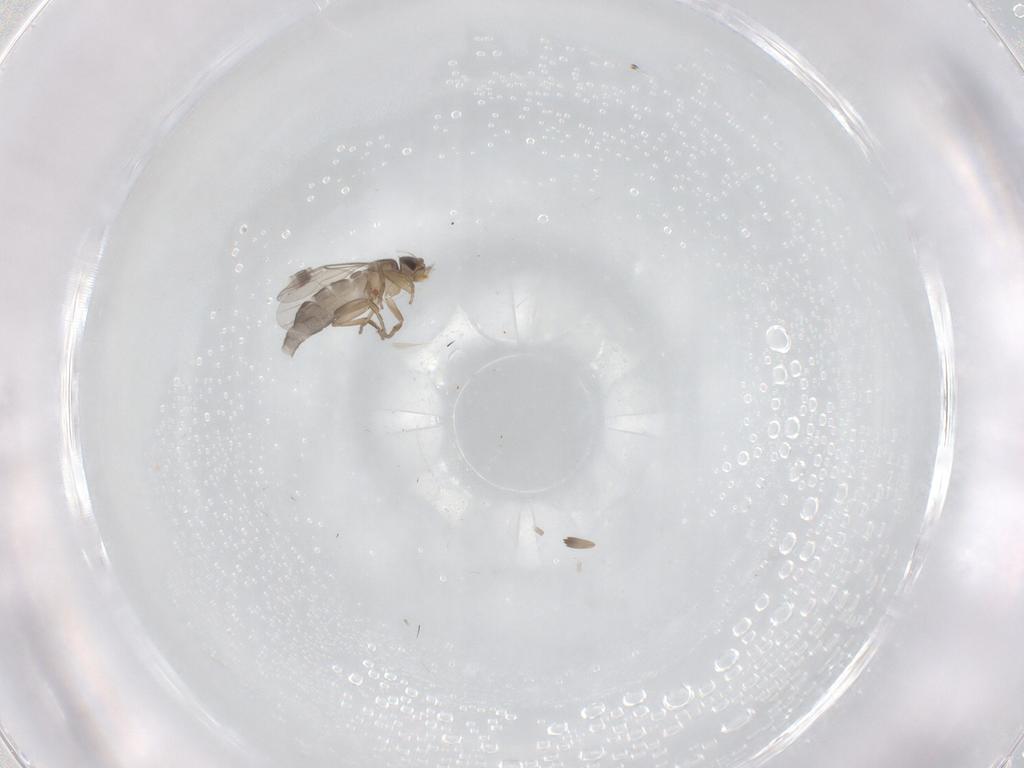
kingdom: Animalia
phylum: Arthropoda
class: Insecta
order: Diptera
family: Phoridae
